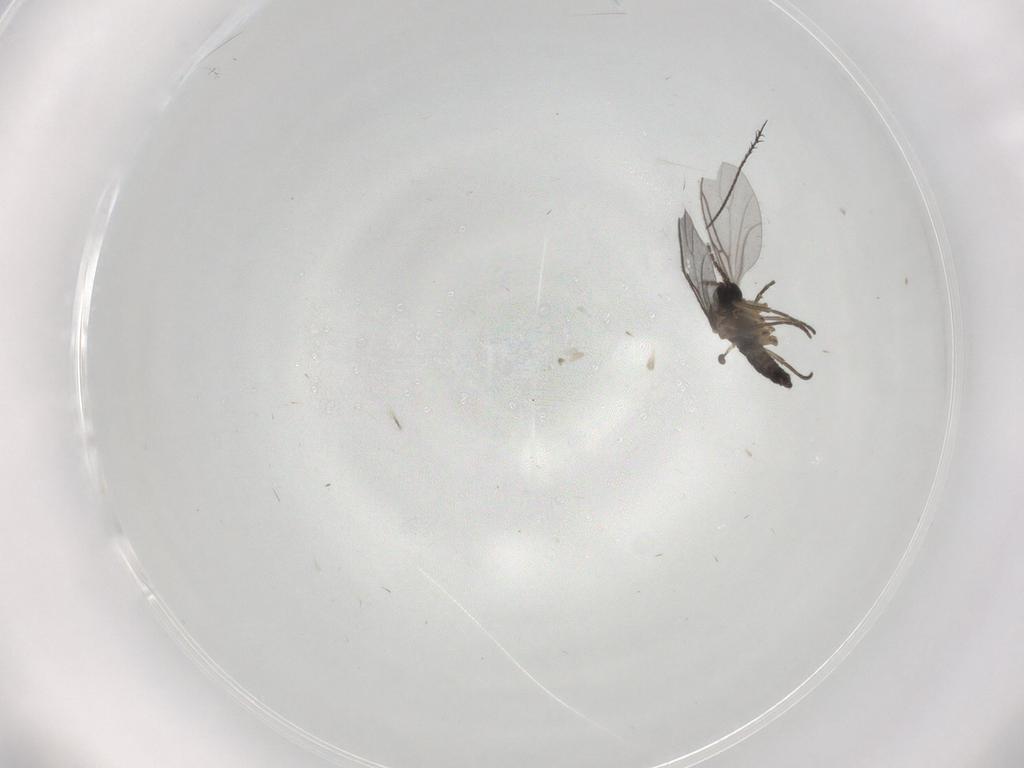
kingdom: Animalia
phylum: Arthropoda
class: Insecta
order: Diptera
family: Sciaridae
